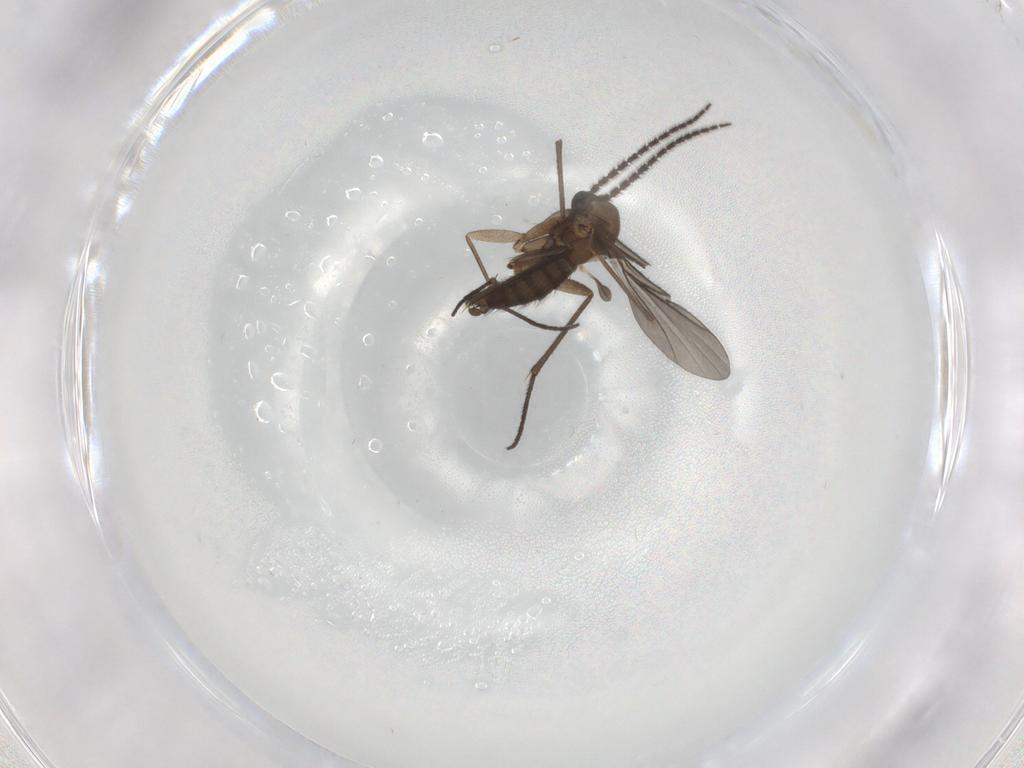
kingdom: Animalia
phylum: Arthropoda
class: Insecta
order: Diptera
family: Sciaridae
